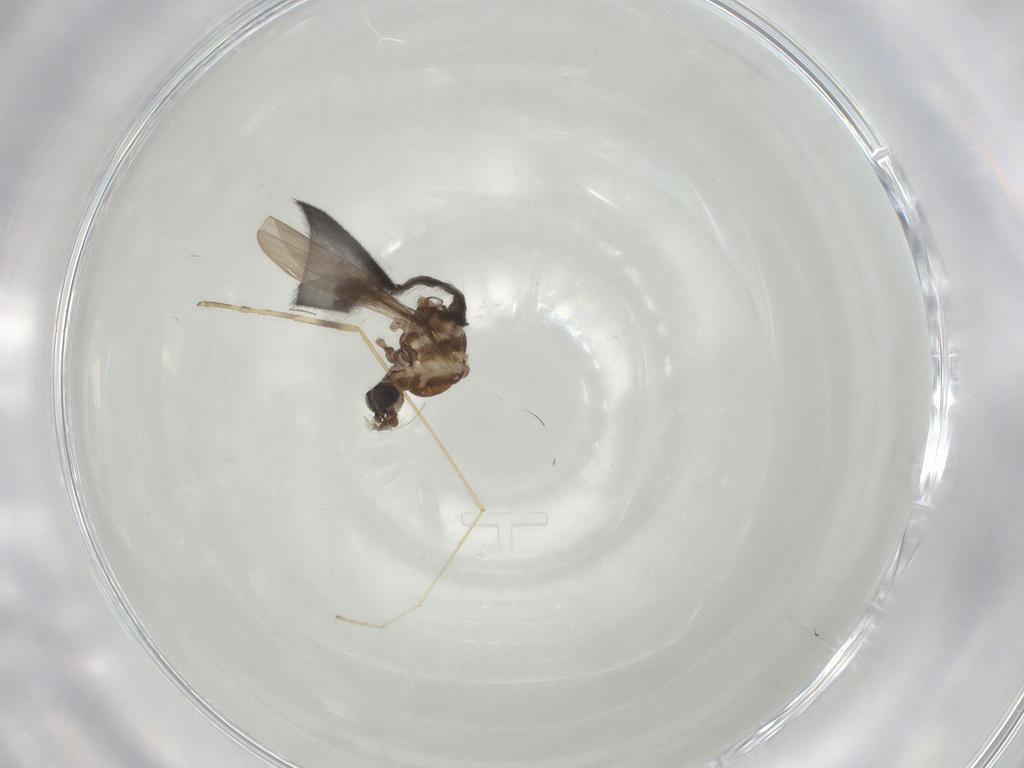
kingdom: Animalia
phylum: Arthropoda
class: Insecta
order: Diptera
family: Limoniidae
